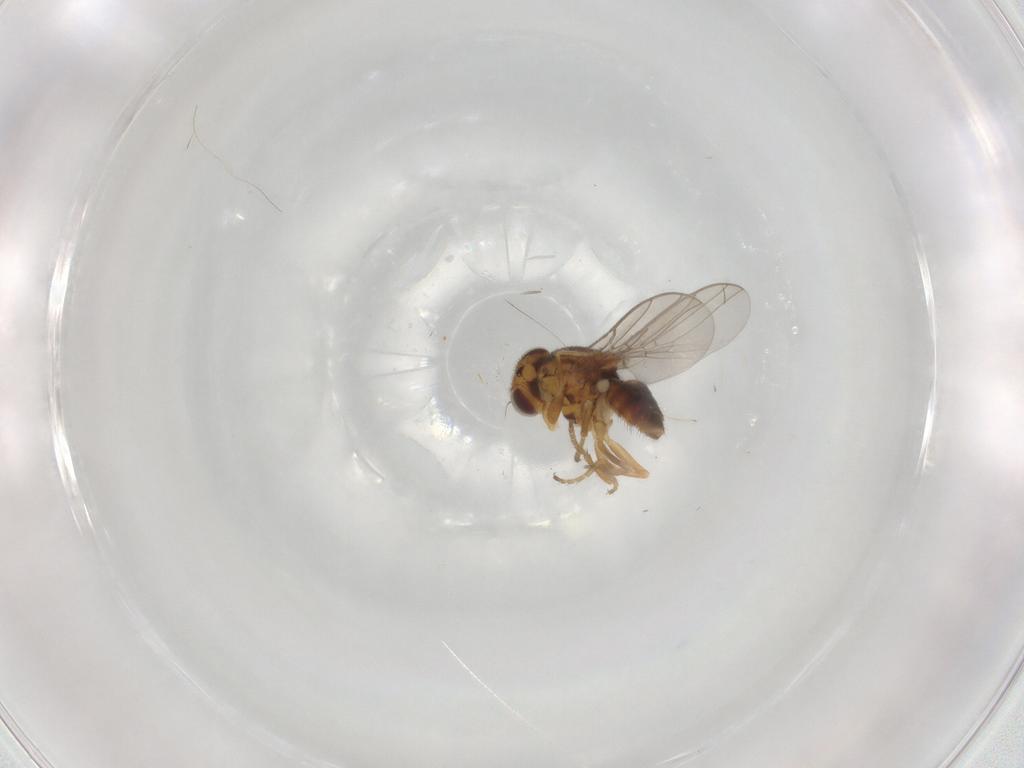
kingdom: Animalia
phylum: Arthropoda
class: Insecta
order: Diptera
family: Chloropidae
